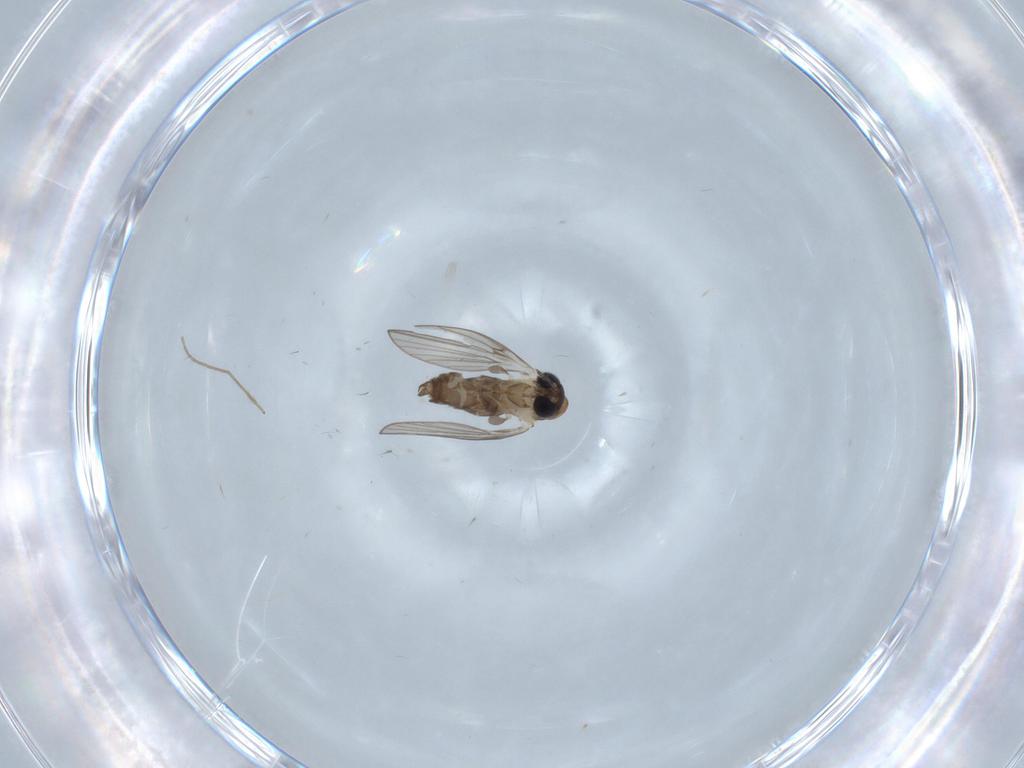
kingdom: Animalia
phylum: Arthropoda
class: Insecta
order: Diptera
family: Psychodidae
